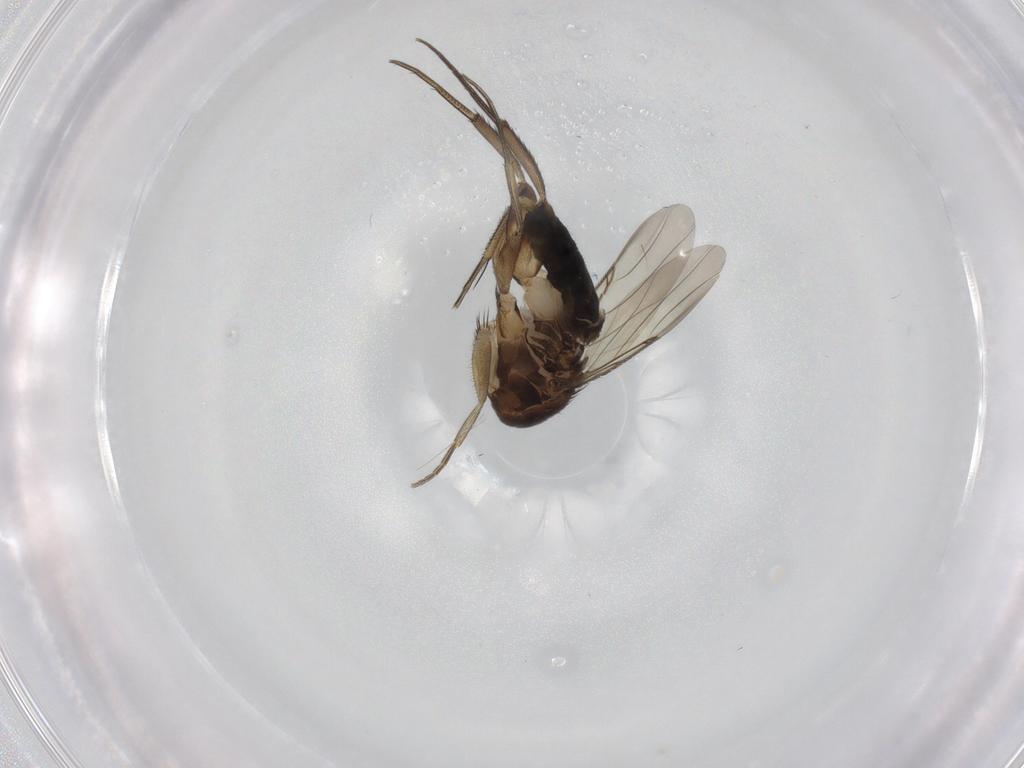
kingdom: Animalia
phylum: Arthropoda
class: Insecta
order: Diptera
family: Phoridae
